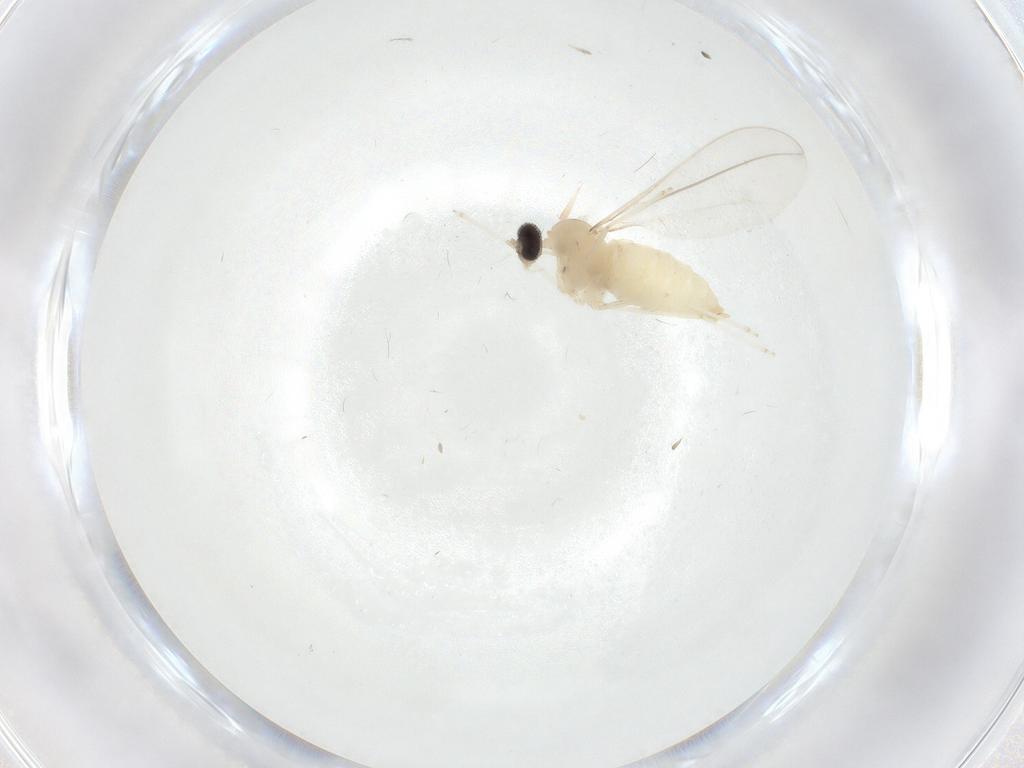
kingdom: Animalia
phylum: Arthropoda
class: Insecta
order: Diptera
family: Cecidomyiidae
